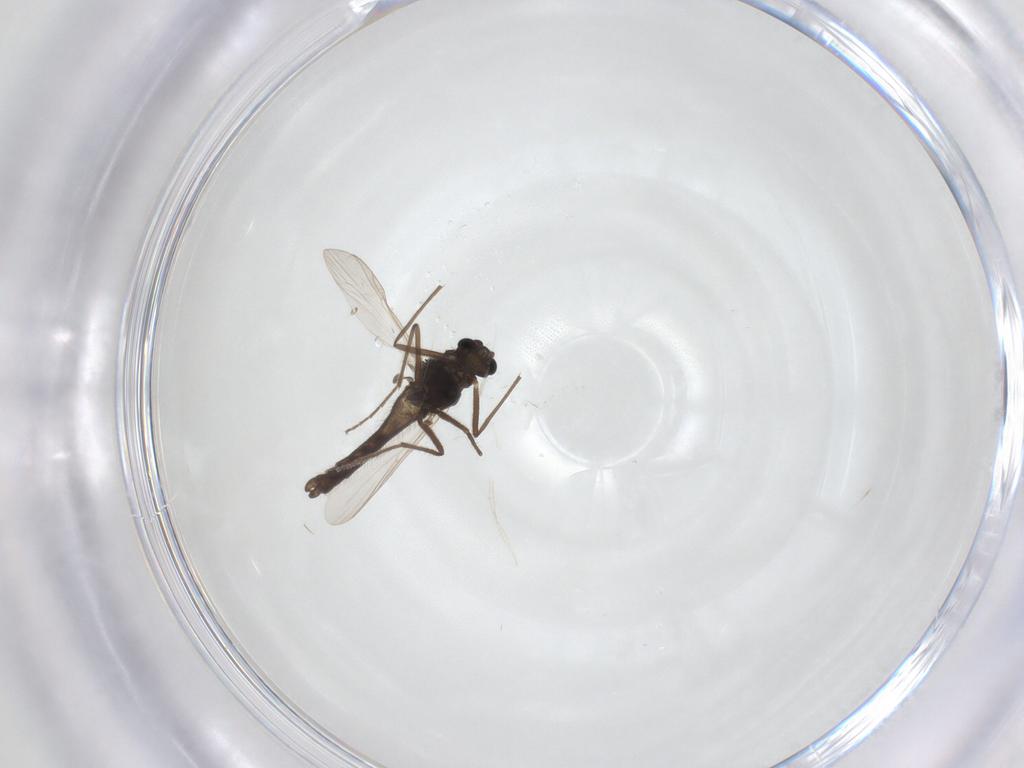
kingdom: Animalia
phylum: Arthropoda
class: Insecta
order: Diptera
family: Chironomidae
